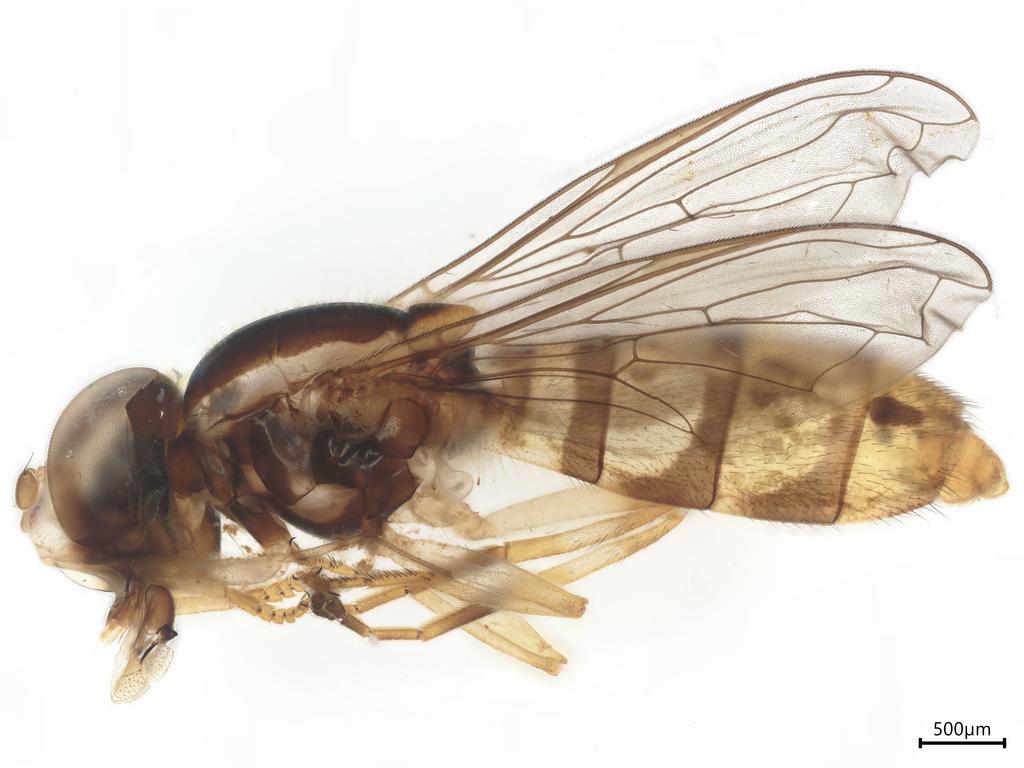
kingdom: Animalia
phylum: Arthropoda
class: Insecta
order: Diptera
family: Syrphidae
